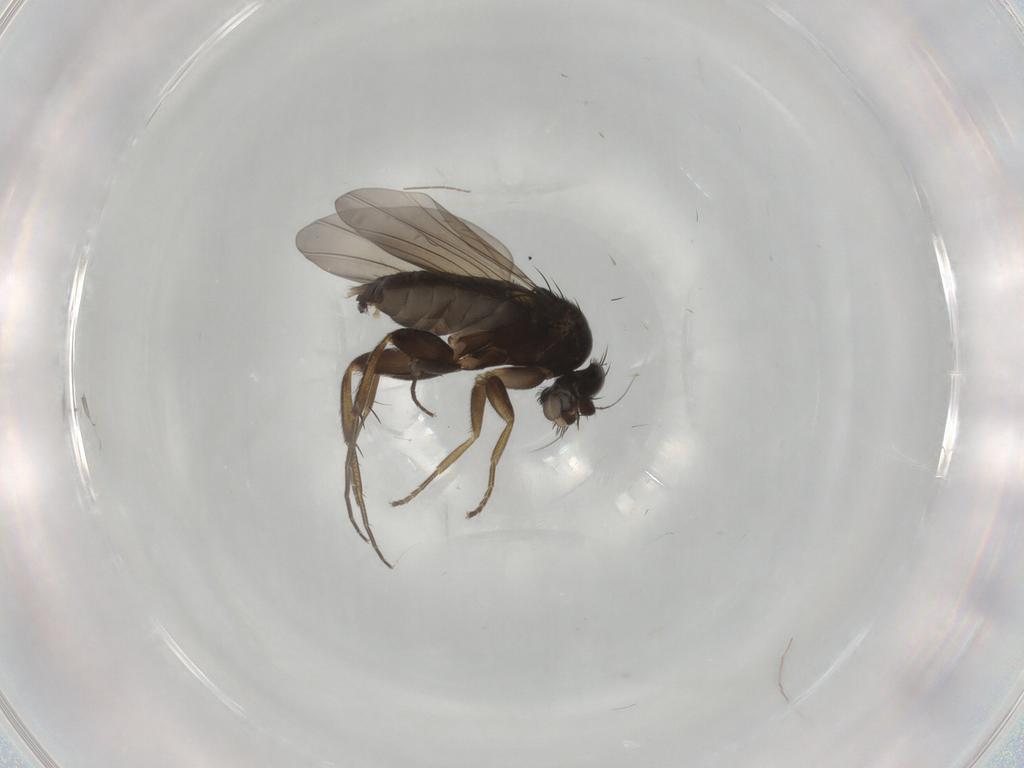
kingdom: Animalia
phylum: Arthropoda
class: Insecta
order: Diptera
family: Phoridae
